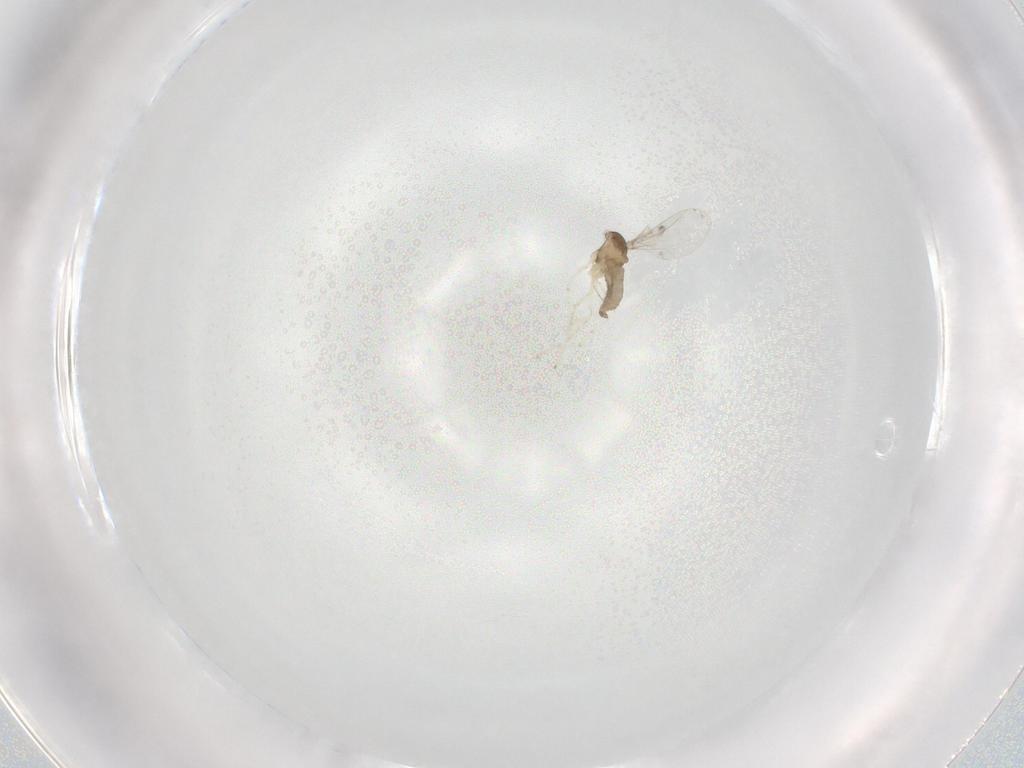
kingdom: Animalia
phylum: Arthropoda
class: Insecta
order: Diptera
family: Cecidomyiidae
